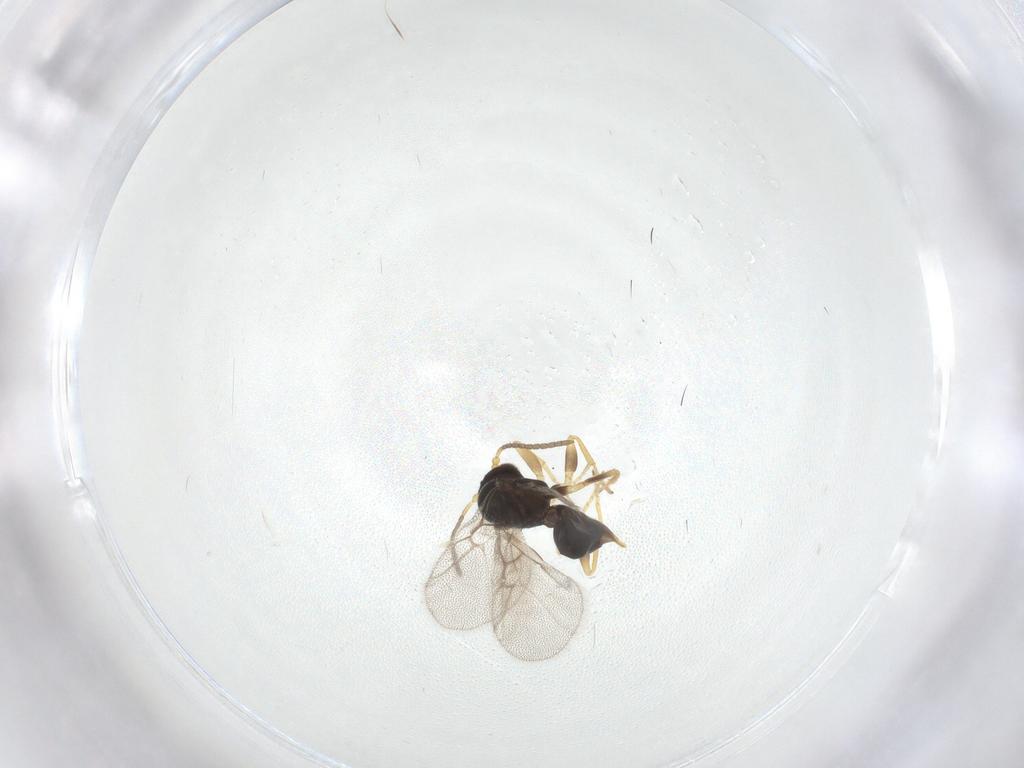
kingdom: Animalia
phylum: Arthropoda
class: Insecta
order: Hymenoptera
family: Cynipidae
